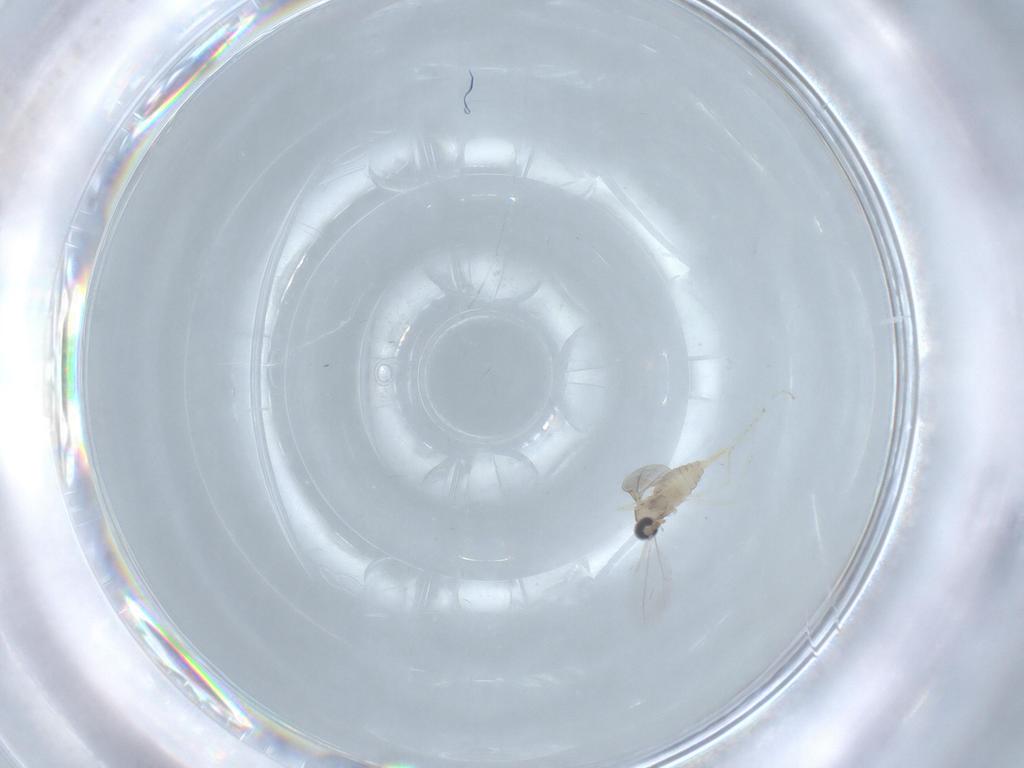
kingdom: Animalia
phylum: Arthropoda
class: Insecta
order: Diptera
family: Cecidomyiidae
